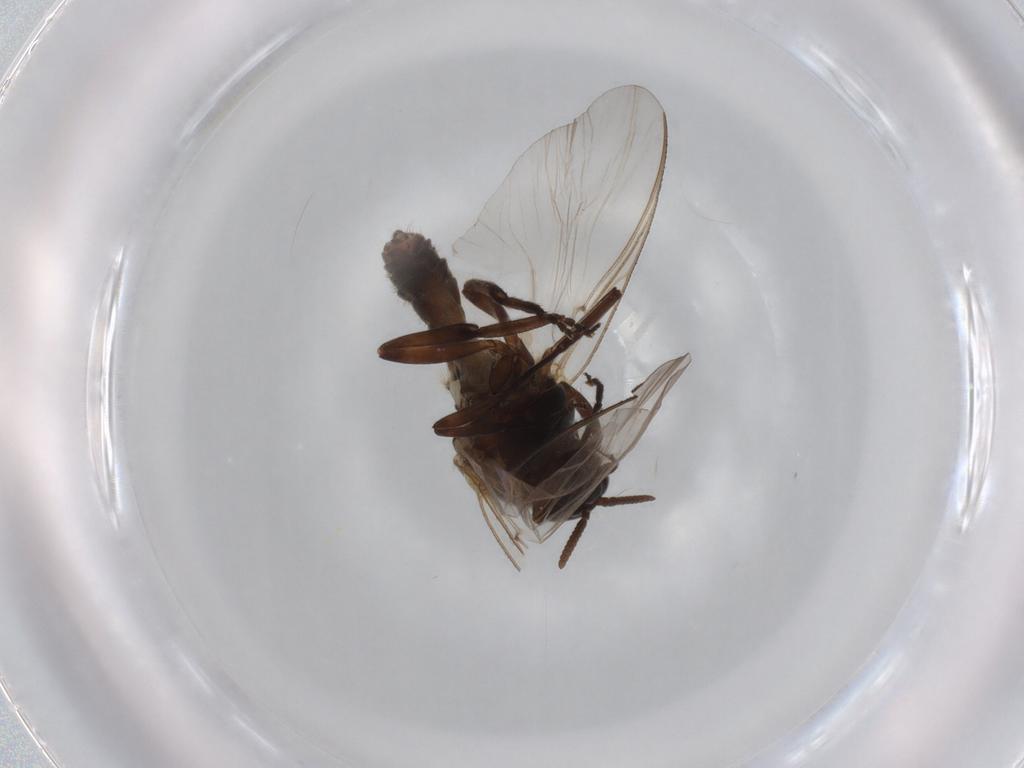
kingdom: Animalia
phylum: Arthropoda
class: Insecta
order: Diptera
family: Simuliidae
